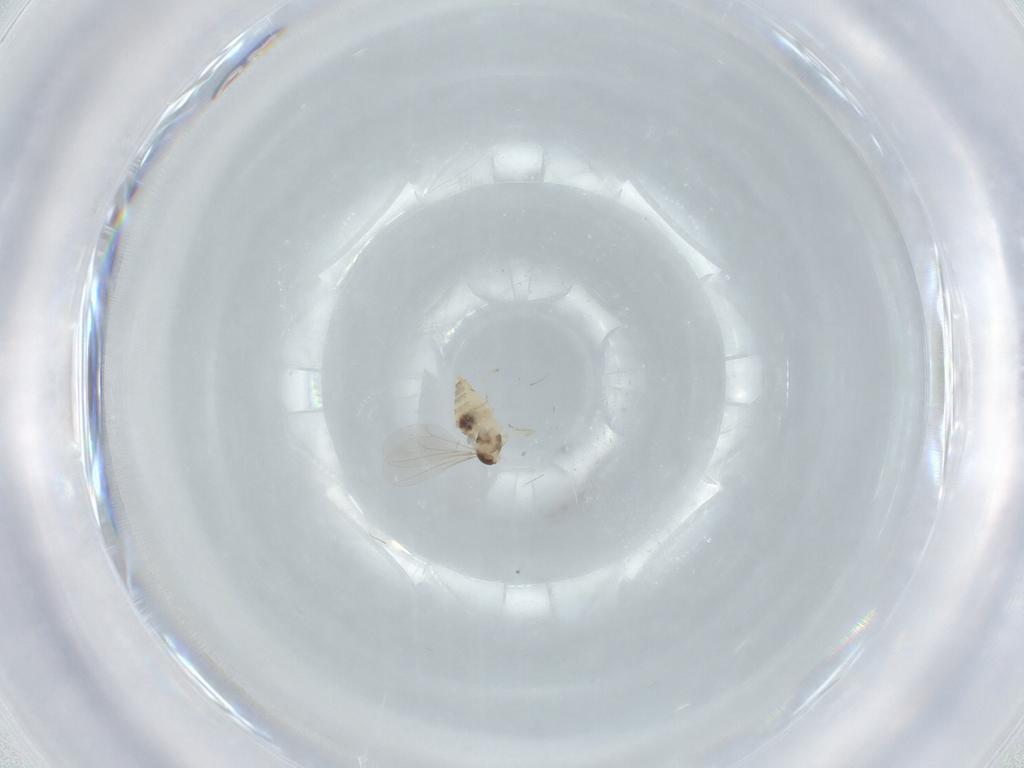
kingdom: Animalia
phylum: Arthropoda
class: Insecta
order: Diptera
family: Cecidomyiidae
